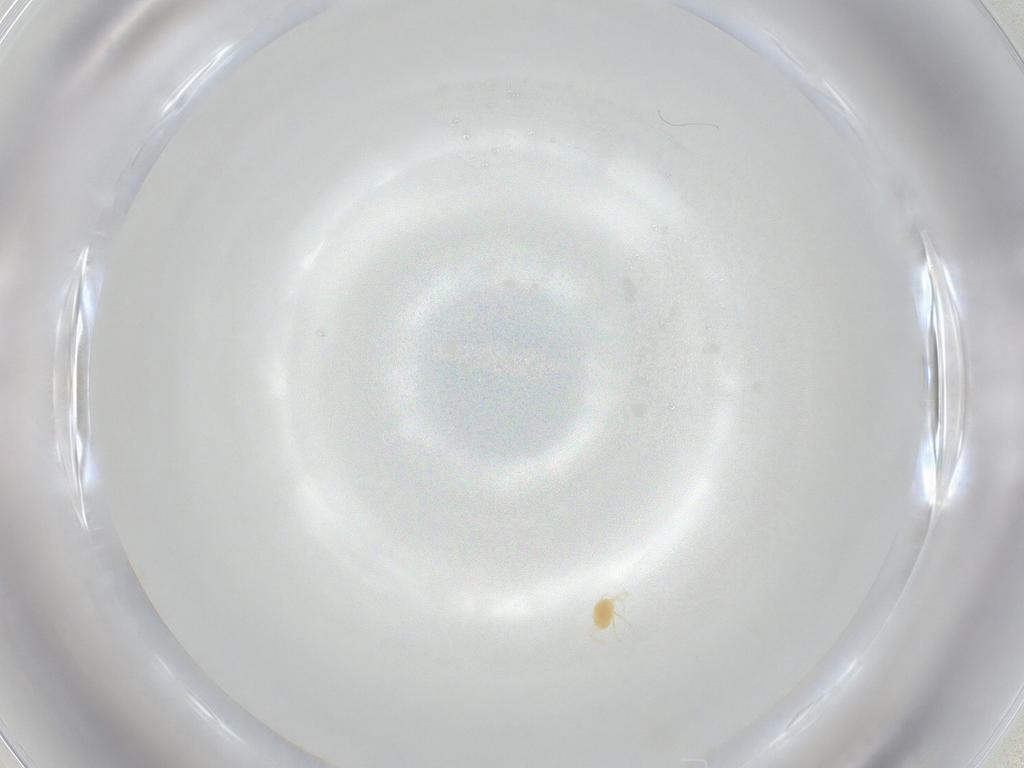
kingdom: Animalia
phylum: Arthropoda
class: Arachnida
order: Trombidiformes
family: Tetranychidae
